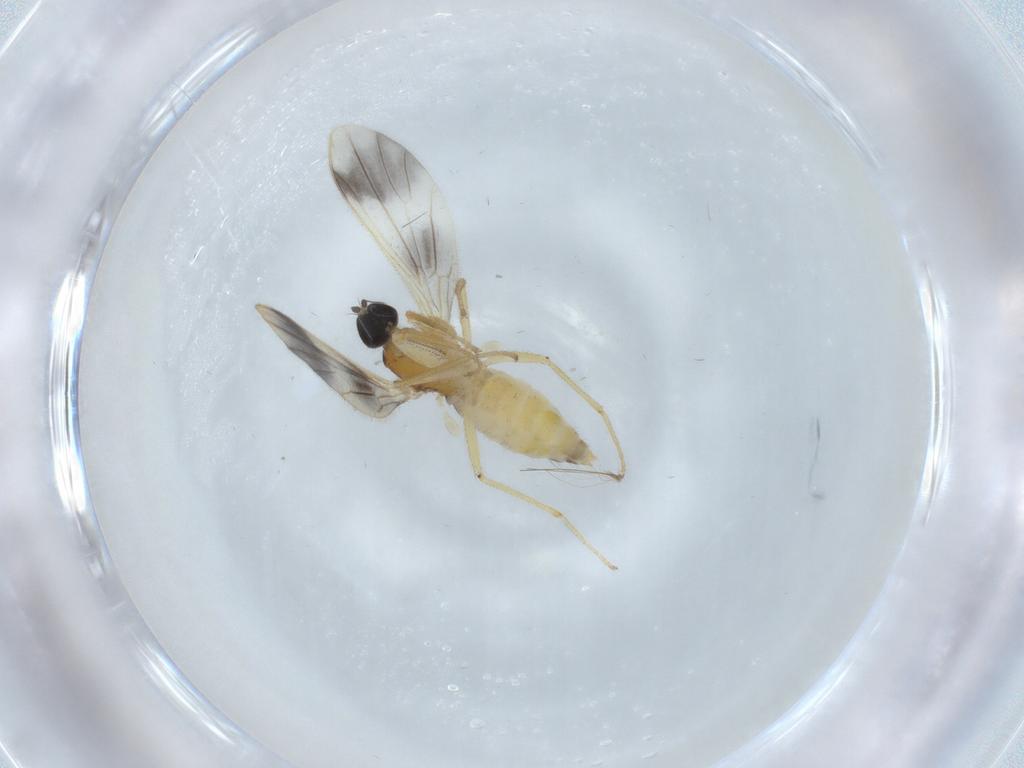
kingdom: Animalia
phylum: Arthropoda
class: Insecta
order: Diptera
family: Empididae
